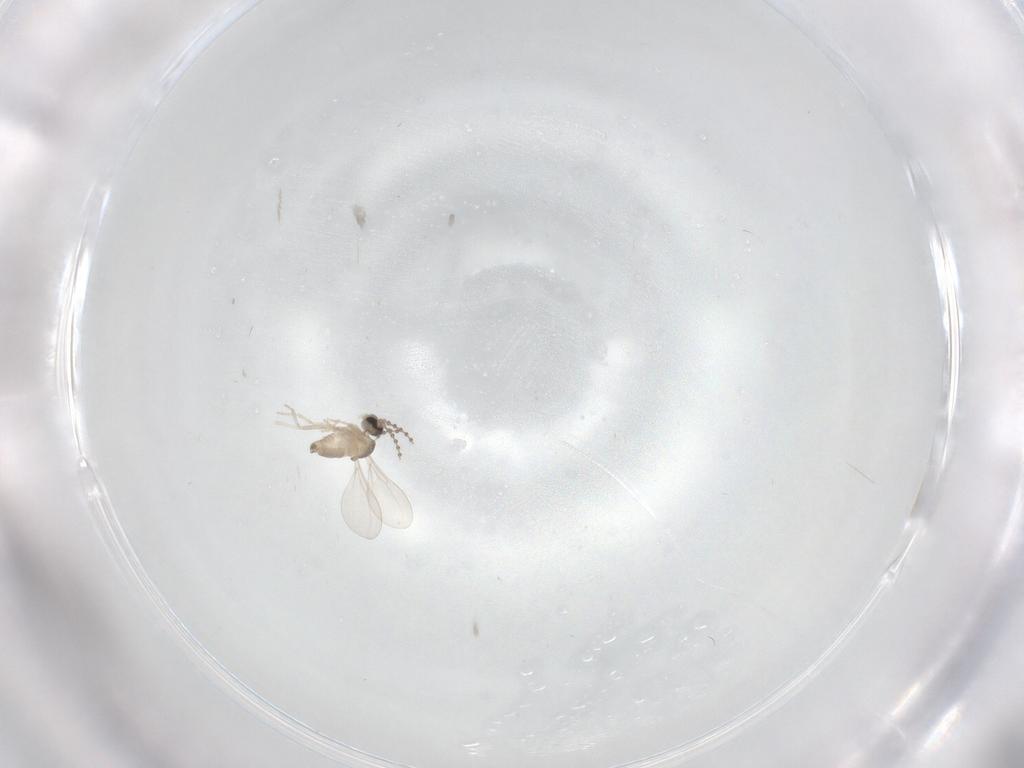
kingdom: Animalia
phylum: Arthropoda
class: Insecta
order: Diptera
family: Cecidomyiidae
